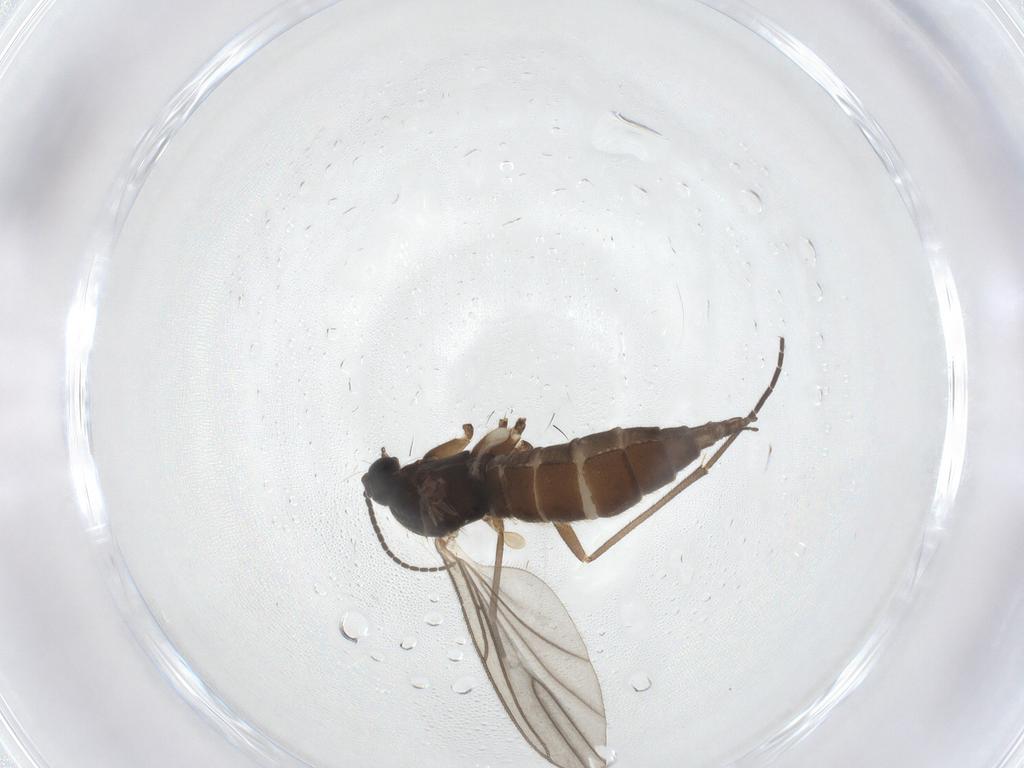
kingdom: Animalia
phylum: Arthropoda
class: Insecta
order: Diptera
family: Sciaridae
